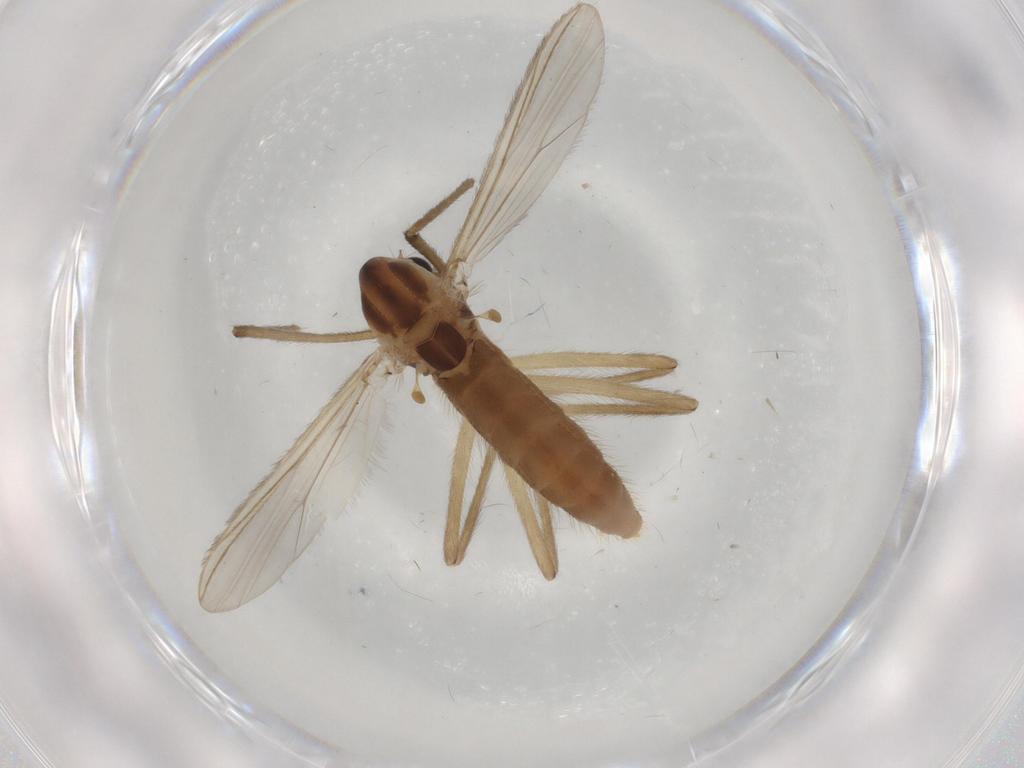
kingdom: Animalia
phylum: Arthropoda
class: Insecta
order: Diptera
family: Chironomidae
